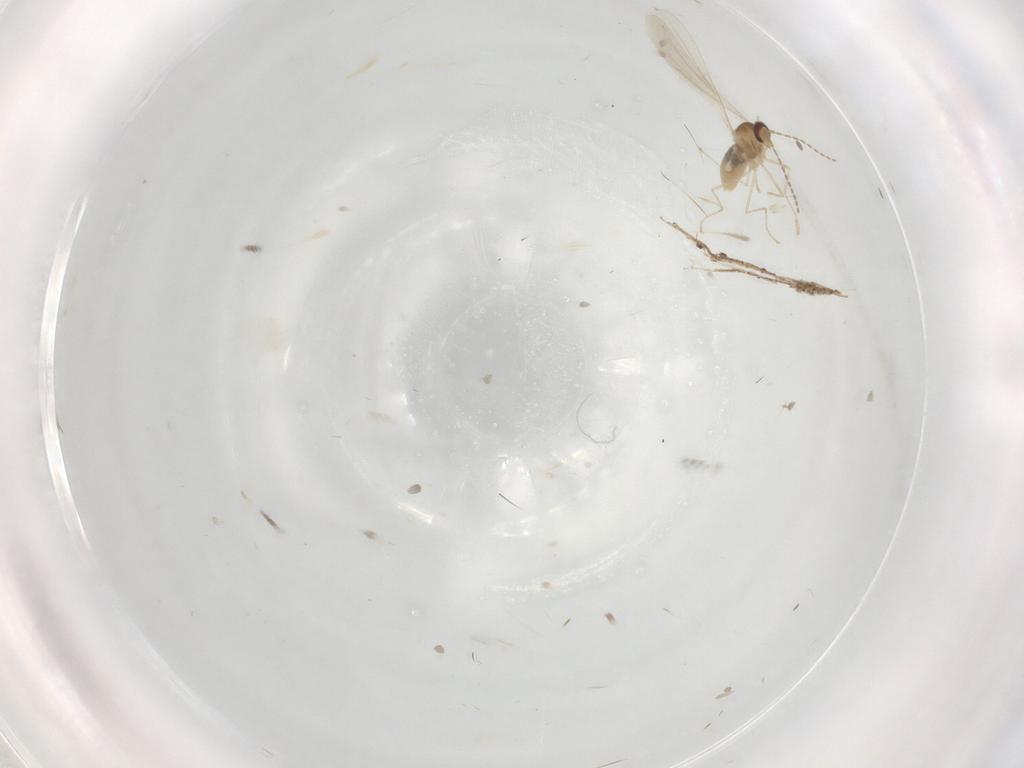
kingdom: Animalia
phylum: Arthropoda
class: Insecta
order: Diptera
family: Cecidomyiidae
